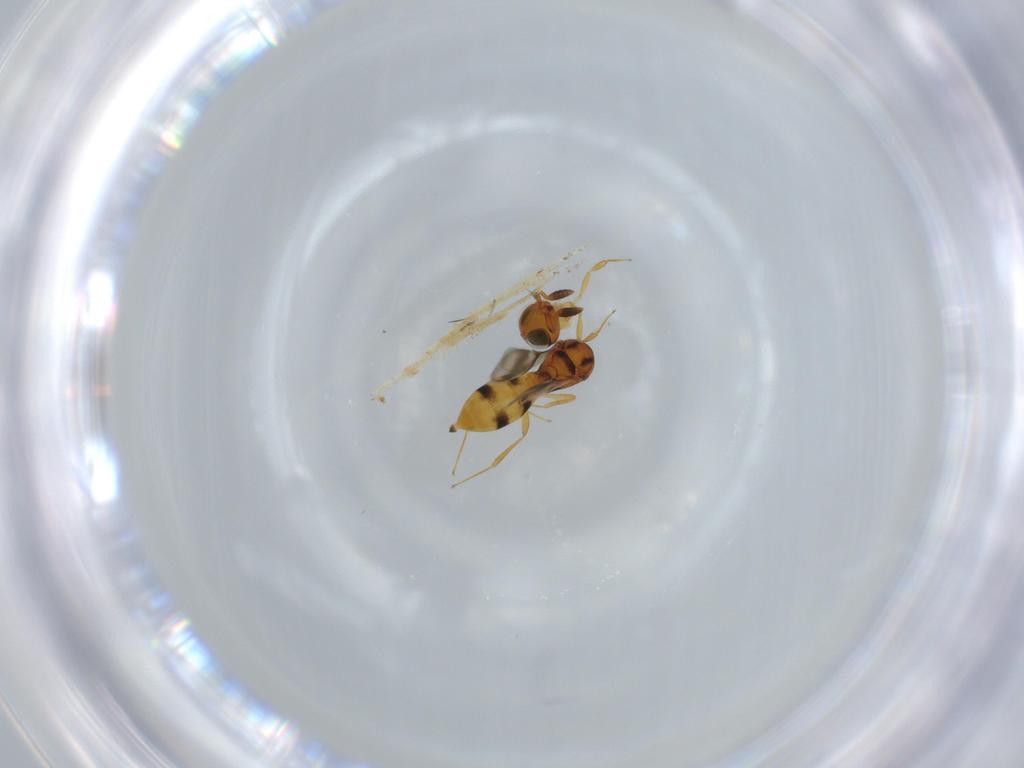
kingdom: Animalia
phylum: Arthropoda
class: Insecta
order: Hymenoptera
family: Scelionidae
